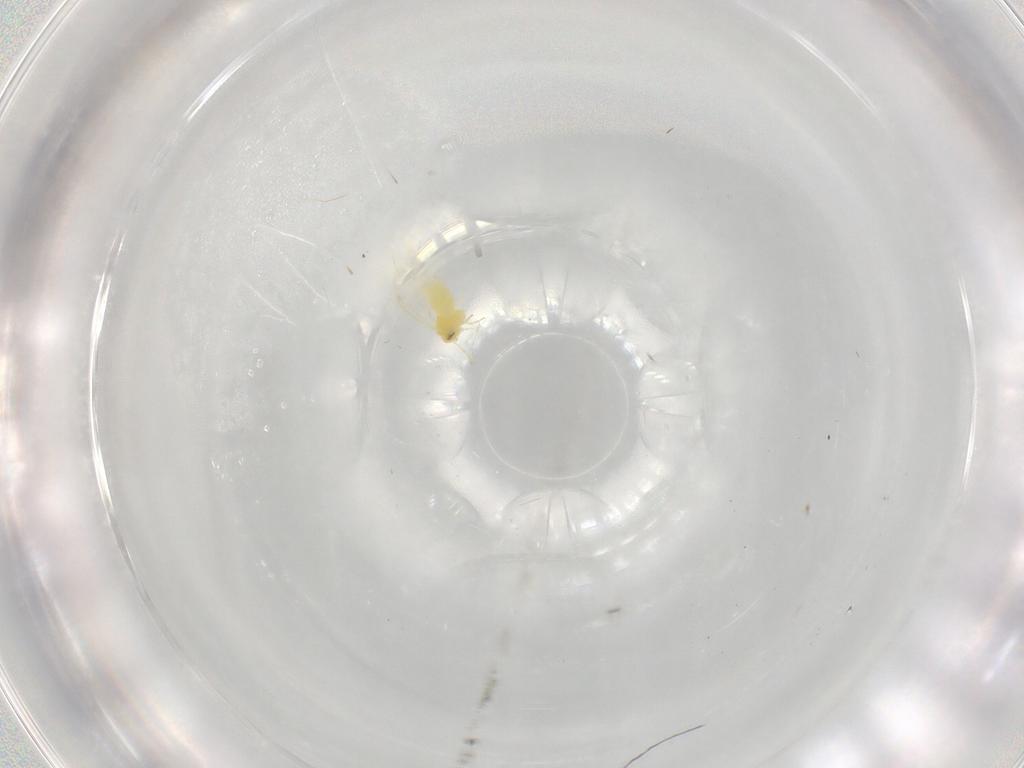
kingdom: Animalia
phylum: Arthropoda
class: Insecta
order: Hemiptera
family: Aleyrodidae
